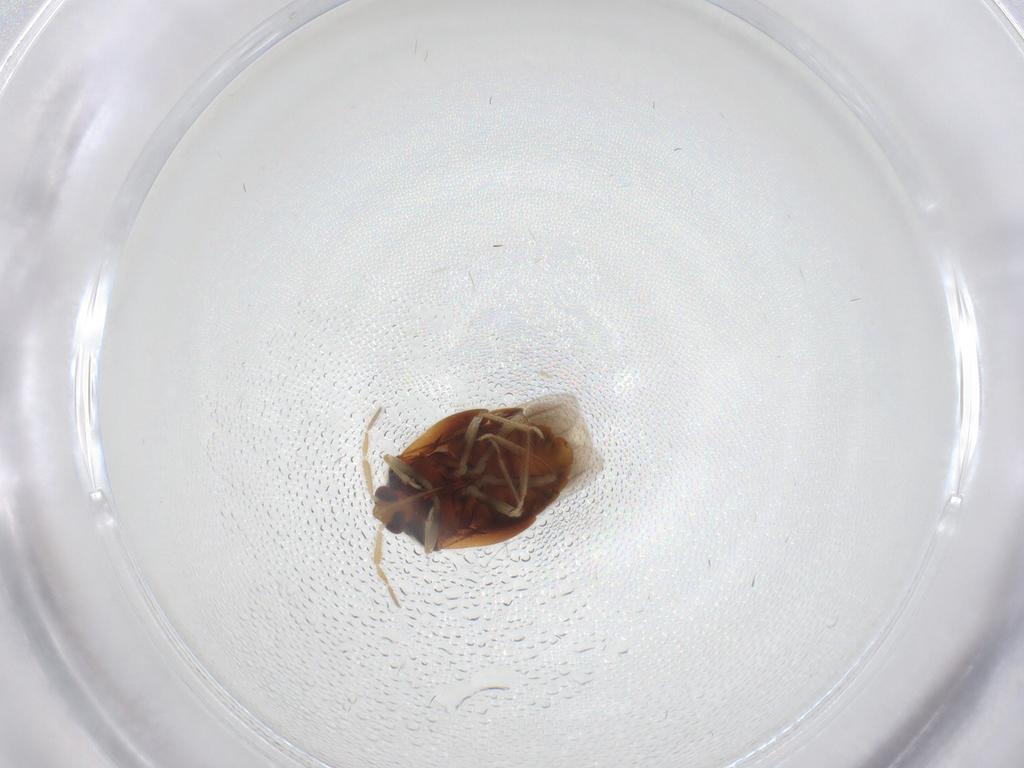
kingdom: Animalia
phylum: Arthropoda
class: Insecta
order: Hemiptera
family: Anthocoridae
